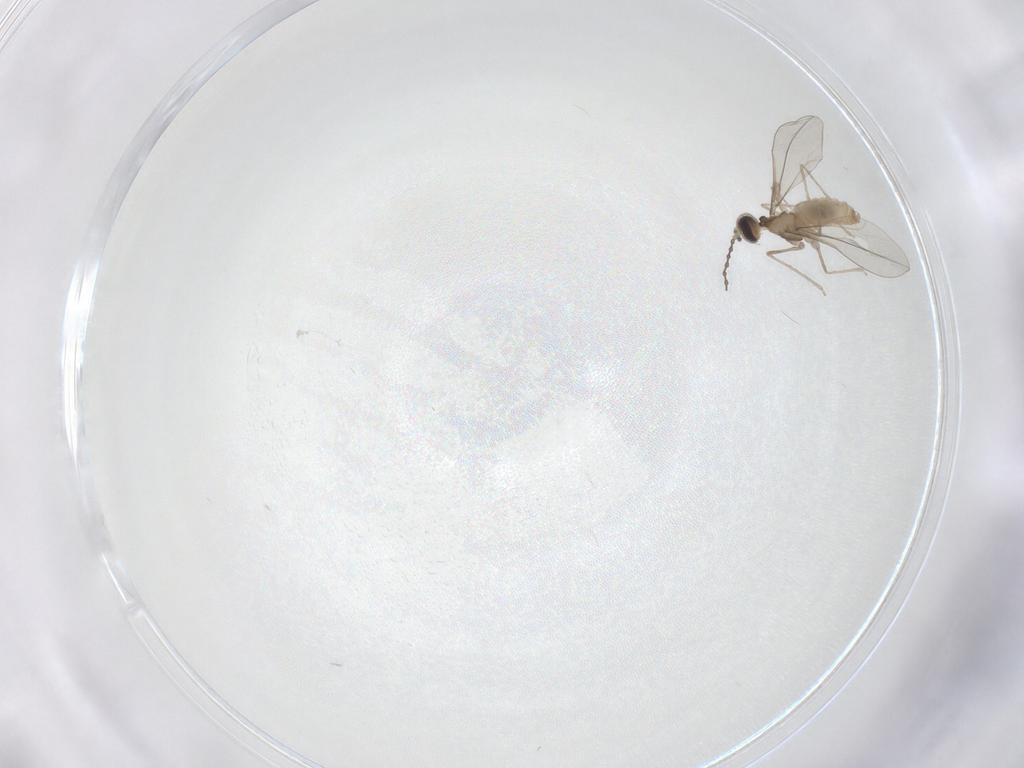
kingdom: Animalia
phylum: Arthropoda
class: Insecta
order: Diptera
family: Cecidomyiidae
